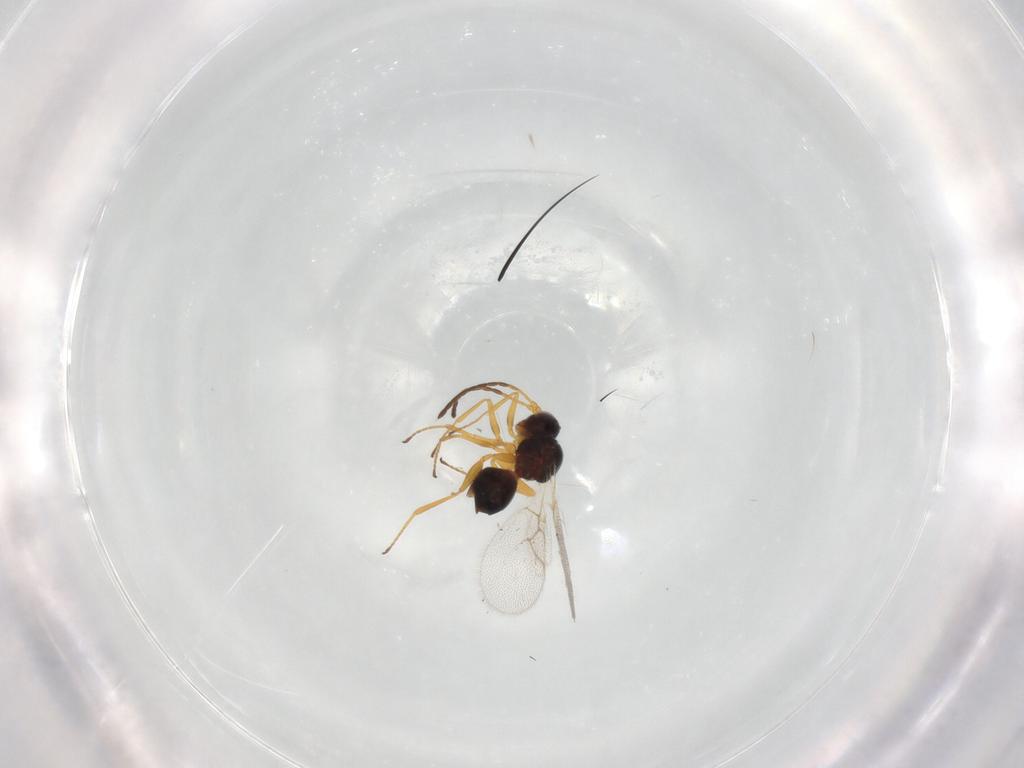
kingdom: Animalia
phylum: Arthropoda
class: Insecta
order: Hymenoptera
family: Figitidae
